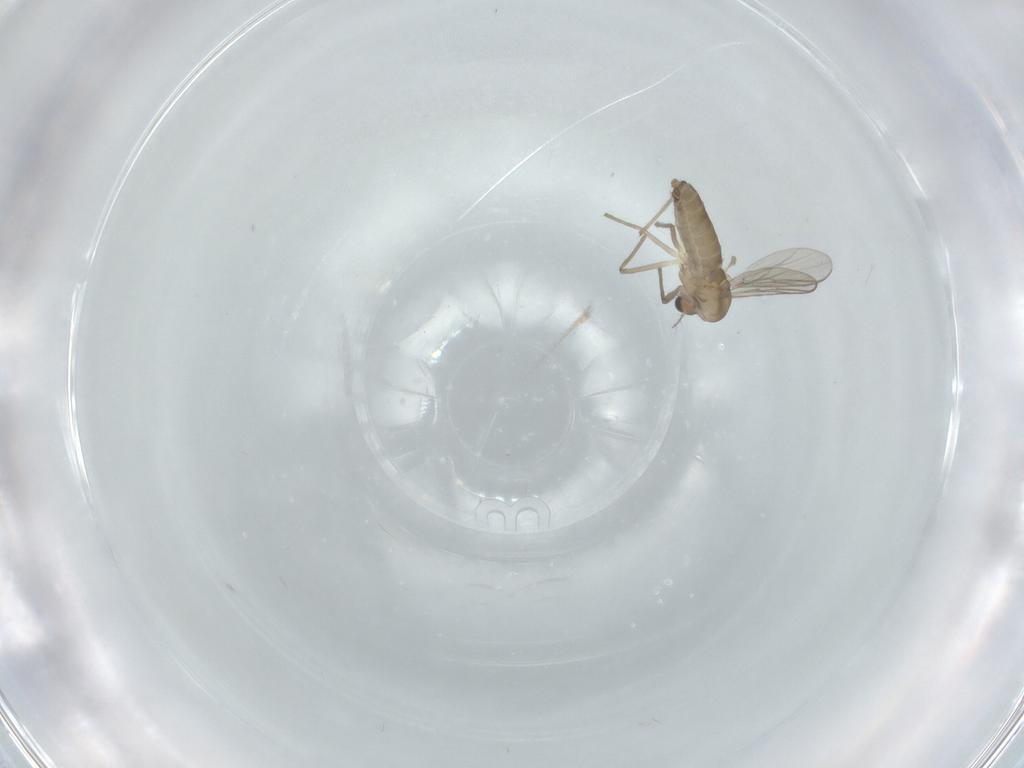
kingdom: Animalia
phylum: Arthropoda
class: Insecta
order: Diptera
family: Chironomidae
